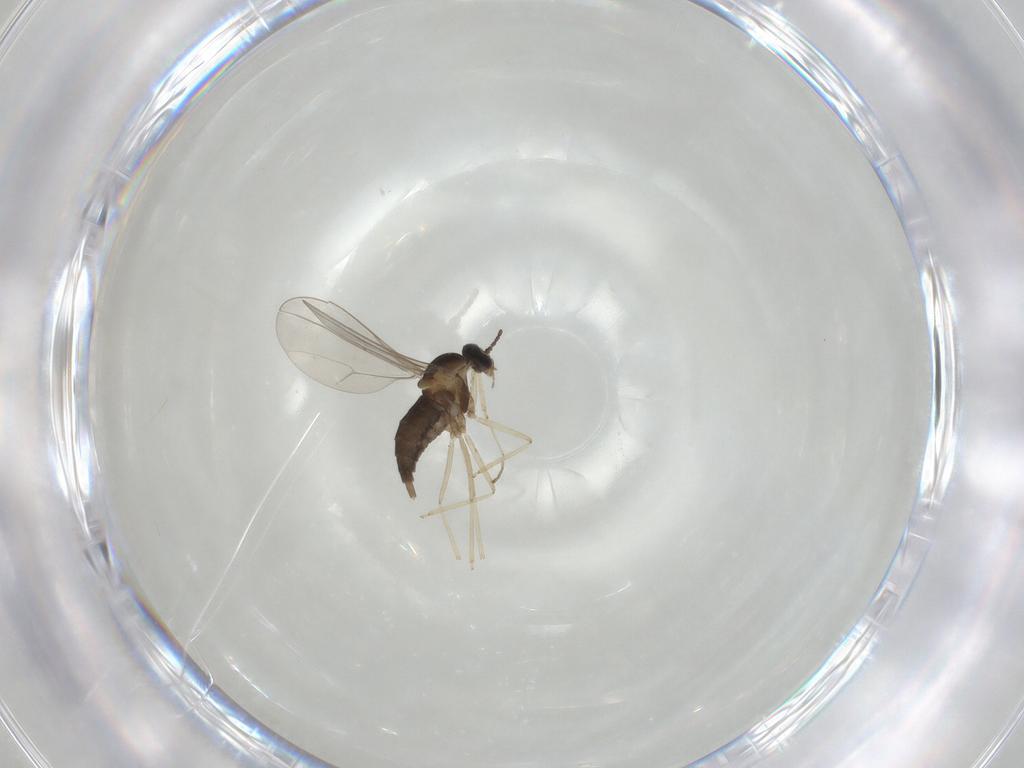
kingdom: Animalia
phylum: Arthropoda
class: Insecta
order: Diptera
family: Cecidomyiidae
